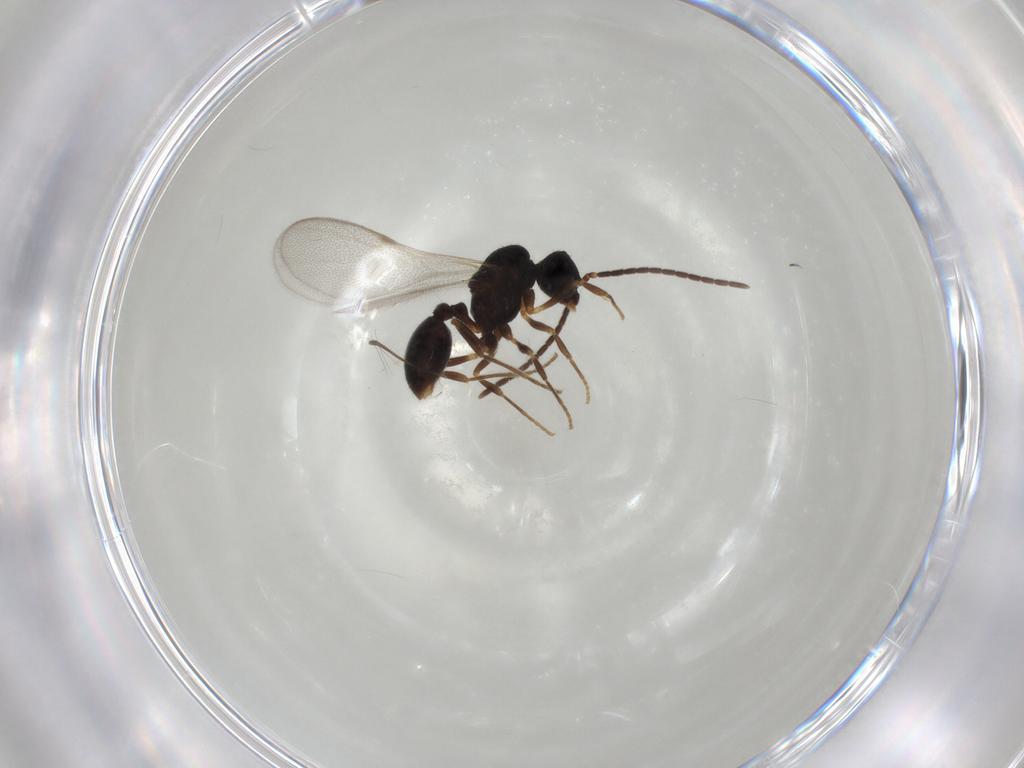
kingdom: Animalia
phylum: Arthropoda
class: Insecta
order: Hymenoptera
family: Formicidae
